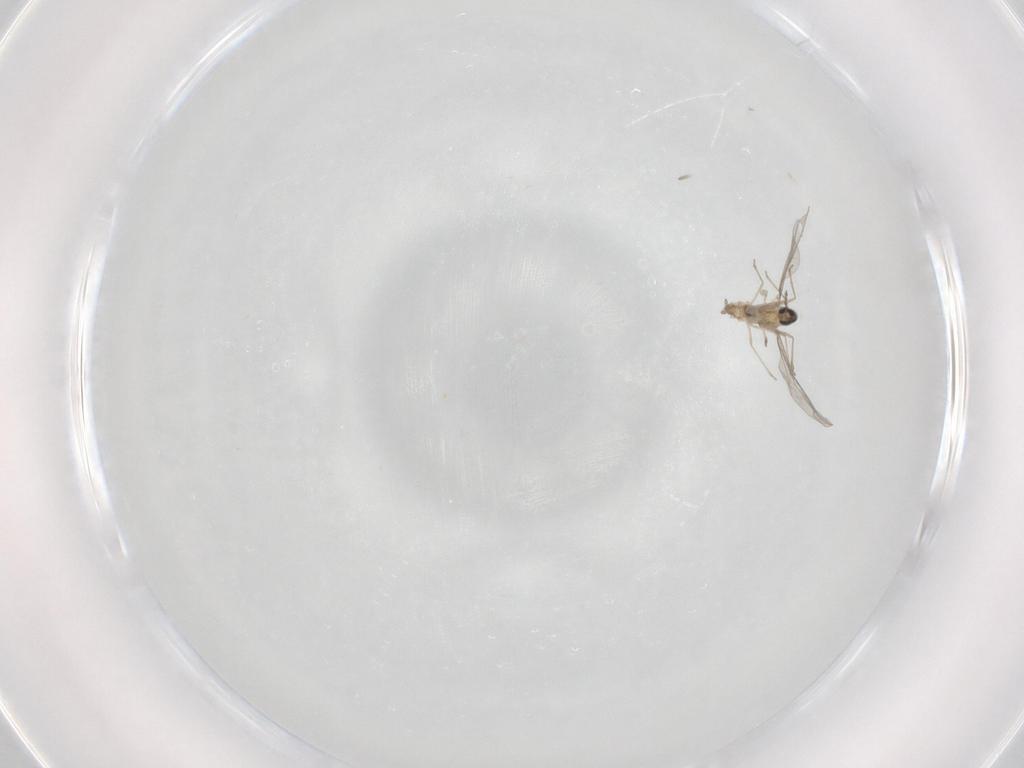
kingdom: Animalia
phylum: Arthropoda
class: Insecta
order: Diptera
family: Cecidomyiidae
